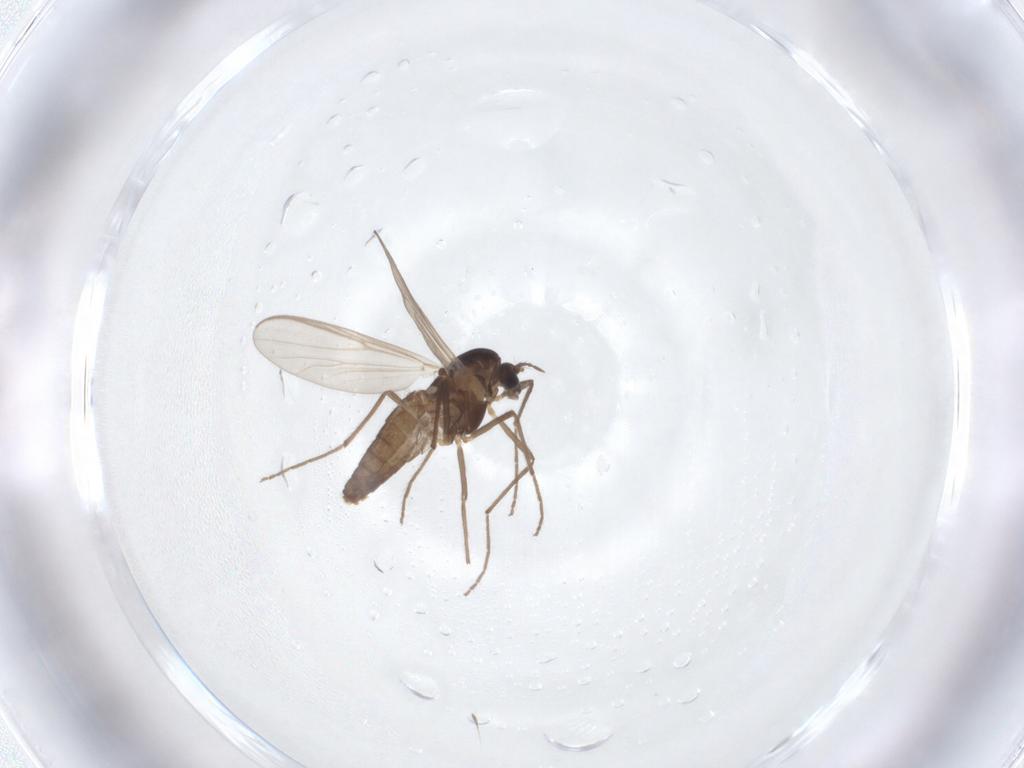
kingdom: Animalia
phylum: Arthropoda
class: Insecta
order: Diptera
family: Chironomidae
